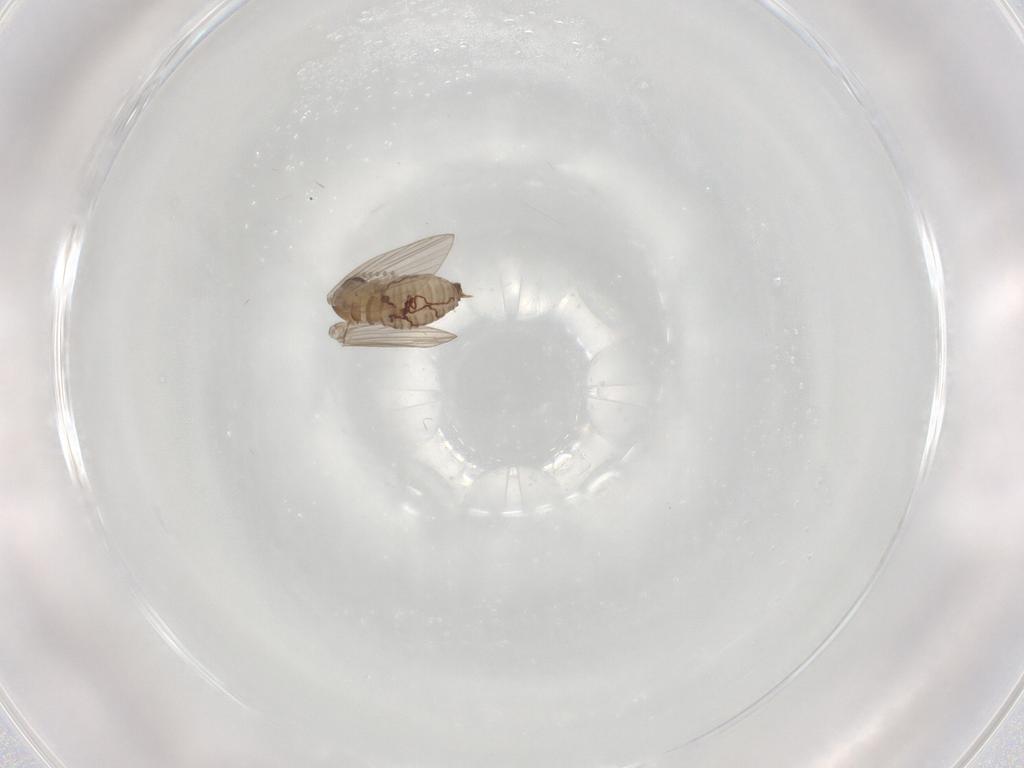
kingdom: Animalia
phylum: Arthropoda
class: Insecta
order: Diptera
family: Psychodidae
